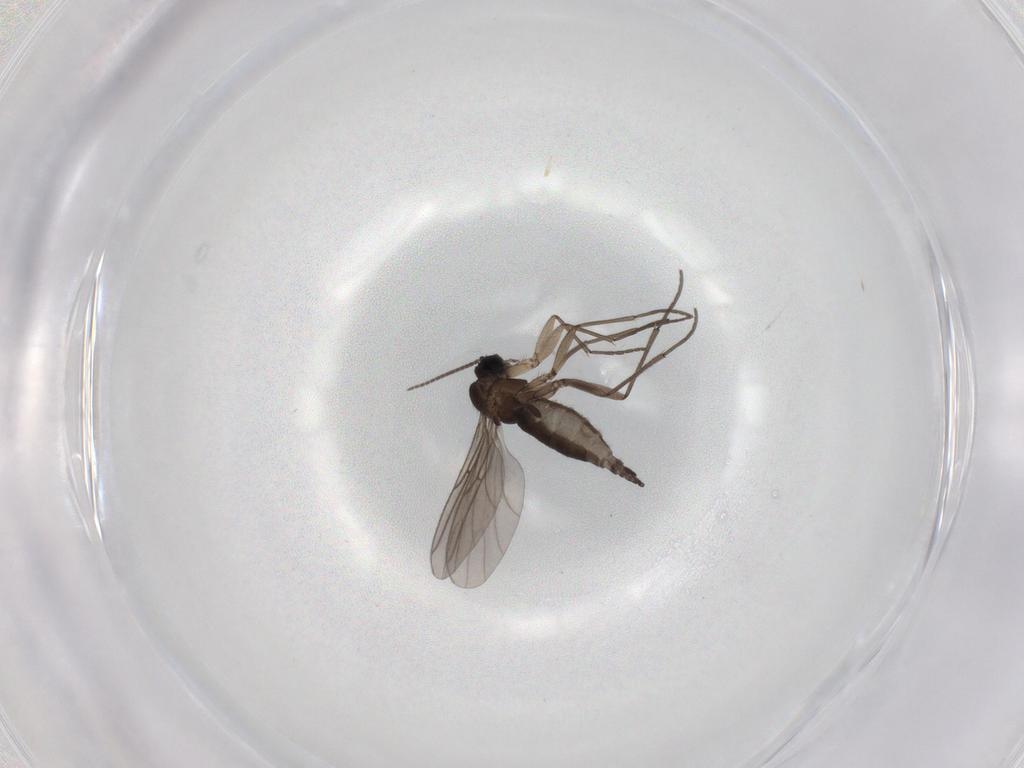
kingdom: Animalia
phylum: Arthropoda
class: Insecta
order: Diptera
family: Sciaridae
